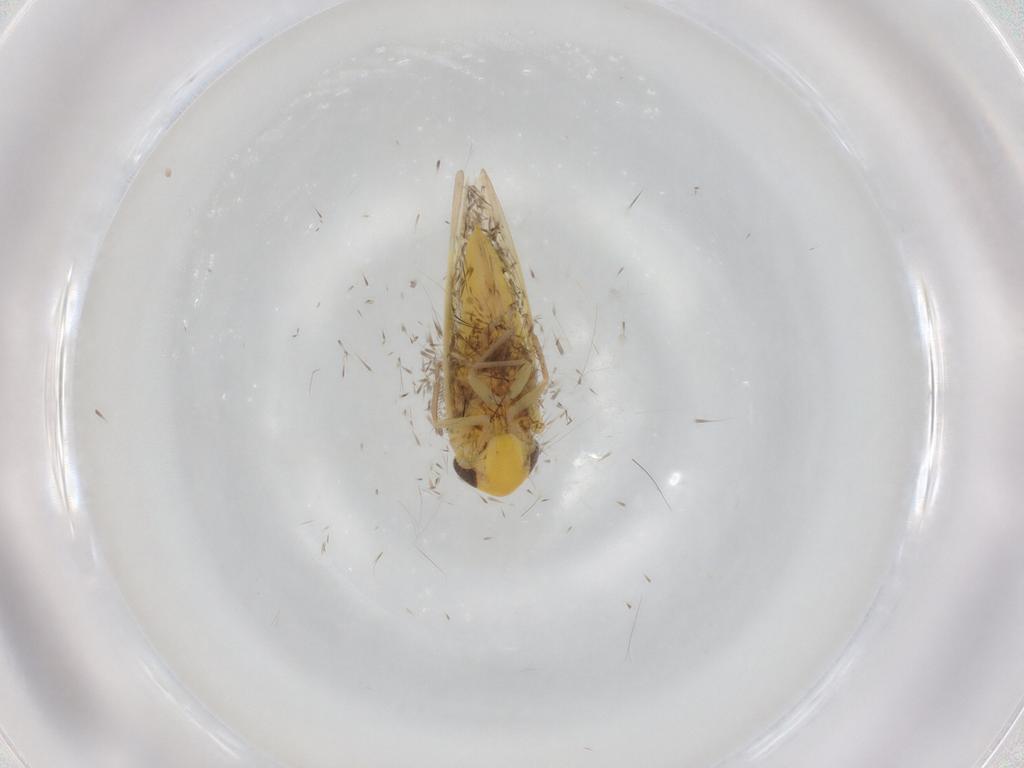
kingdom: Animalia
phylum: Arthropoda
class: Insecta
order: Hemiptera
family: Cicadellidae
